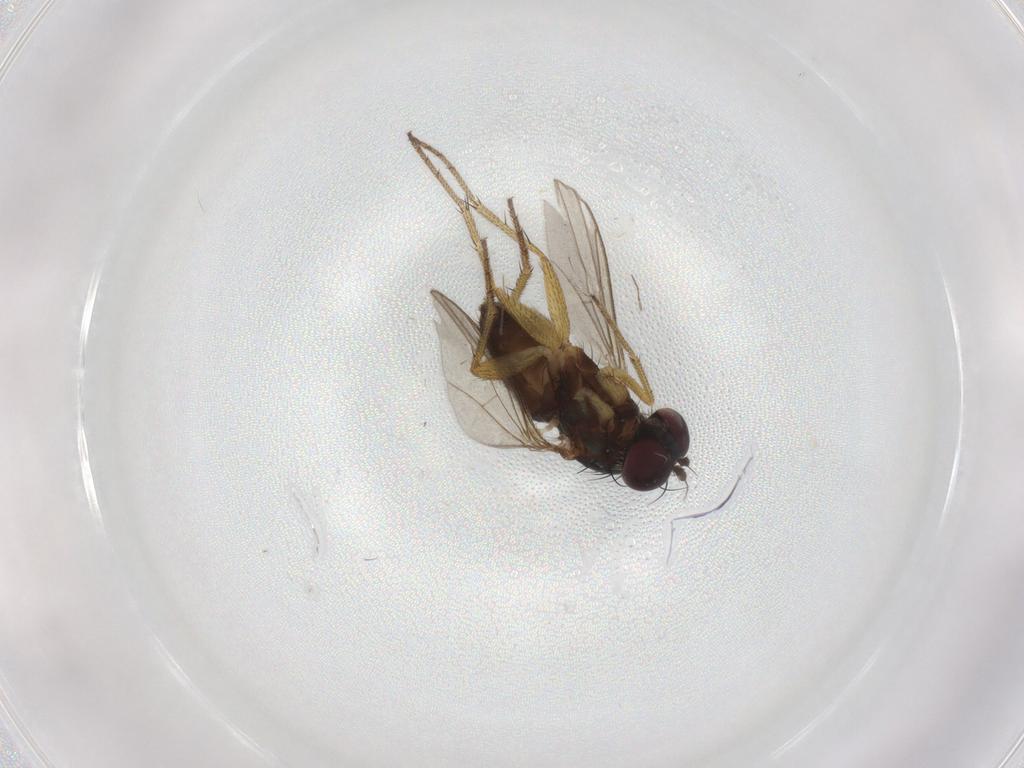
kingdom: Animalia
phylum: Arthropoda
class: Insecta
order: Diptera
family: Chironomidae
